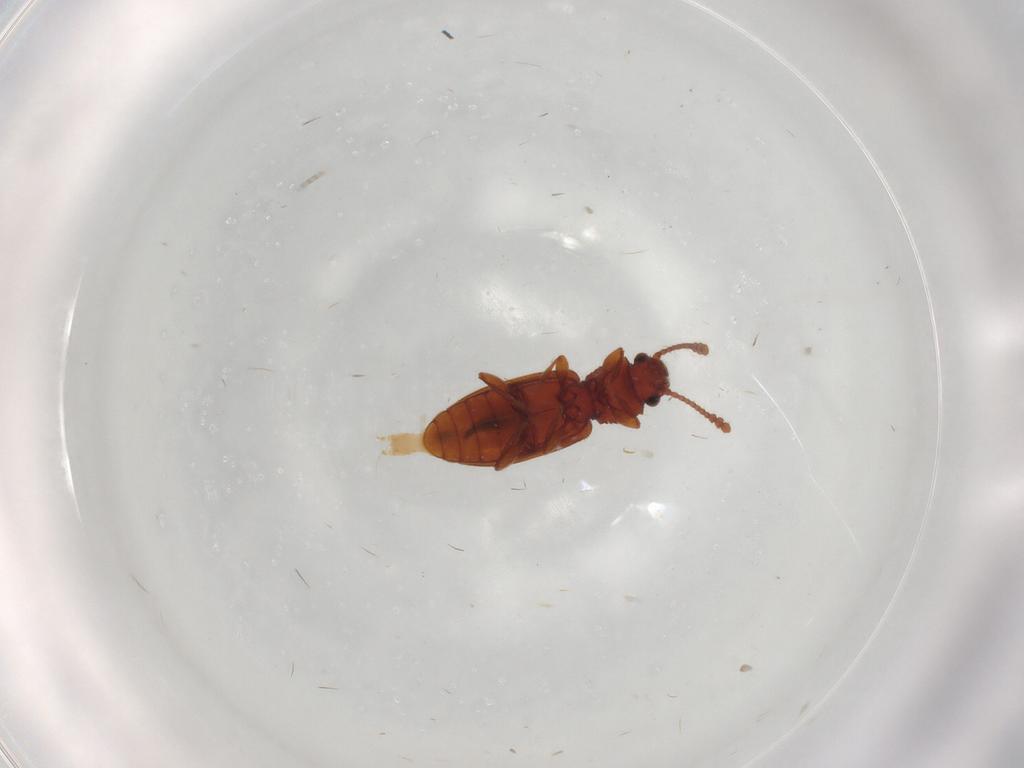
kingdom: Animalia
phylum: Arthropoda
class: Insecta
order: Coleoptera
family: Silvanidae
